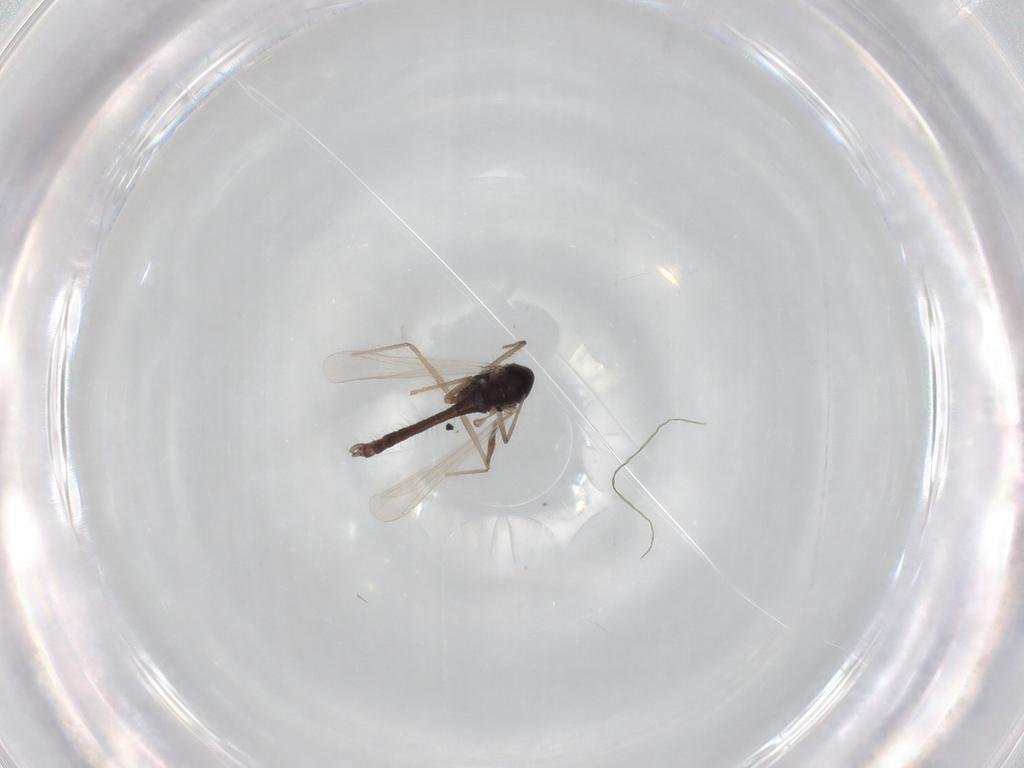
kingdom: Animalia
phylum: Arthropoda
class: Insecta
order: Diptera
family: Chironomidae
